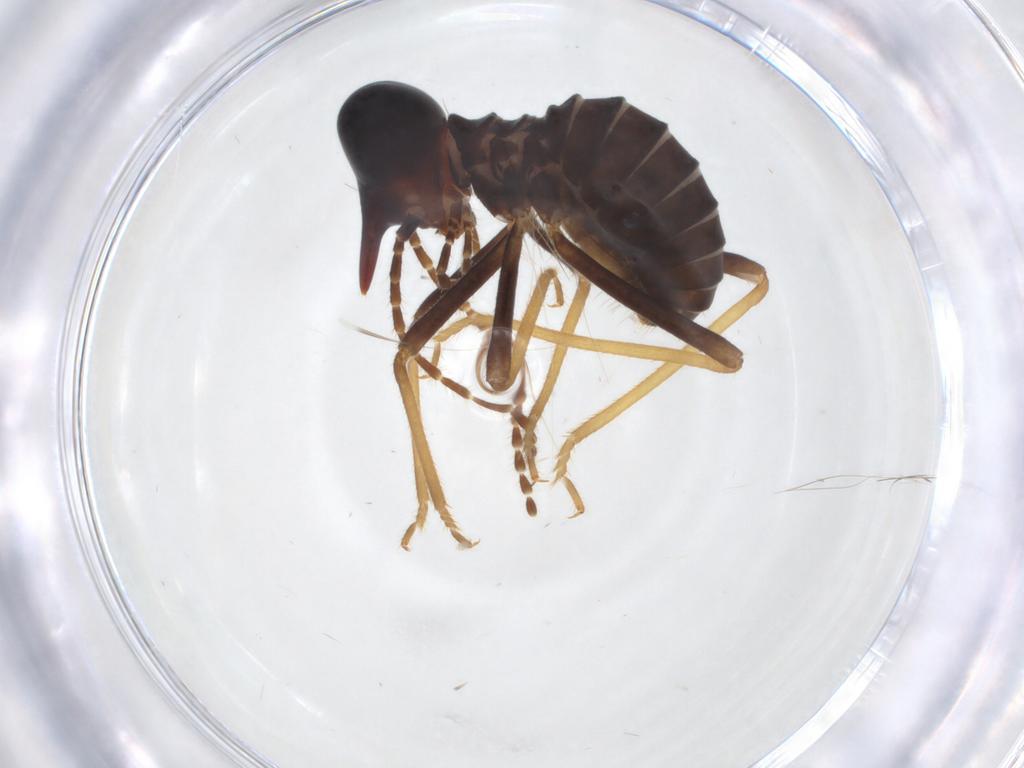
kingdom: Animalia
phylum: Arthropoda
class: Insecta
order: Blattodea
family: Termitidae
